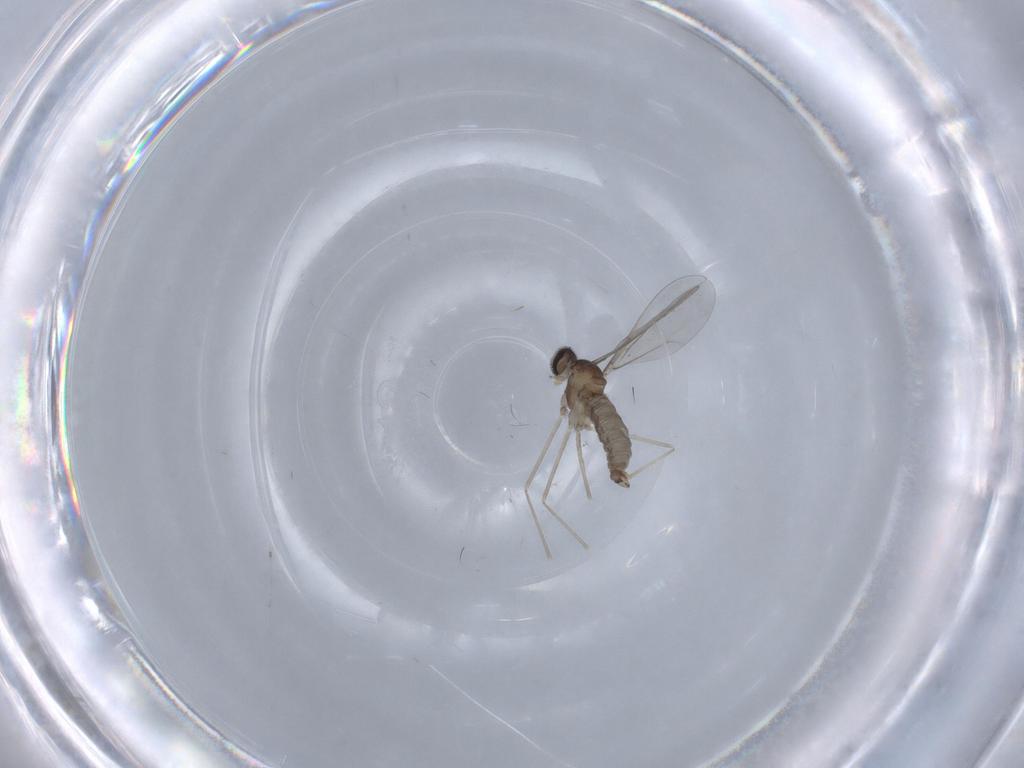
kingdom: Animalia
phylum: Arthropoda
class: Insecta
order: Diptera
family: Cecidomyiidae
